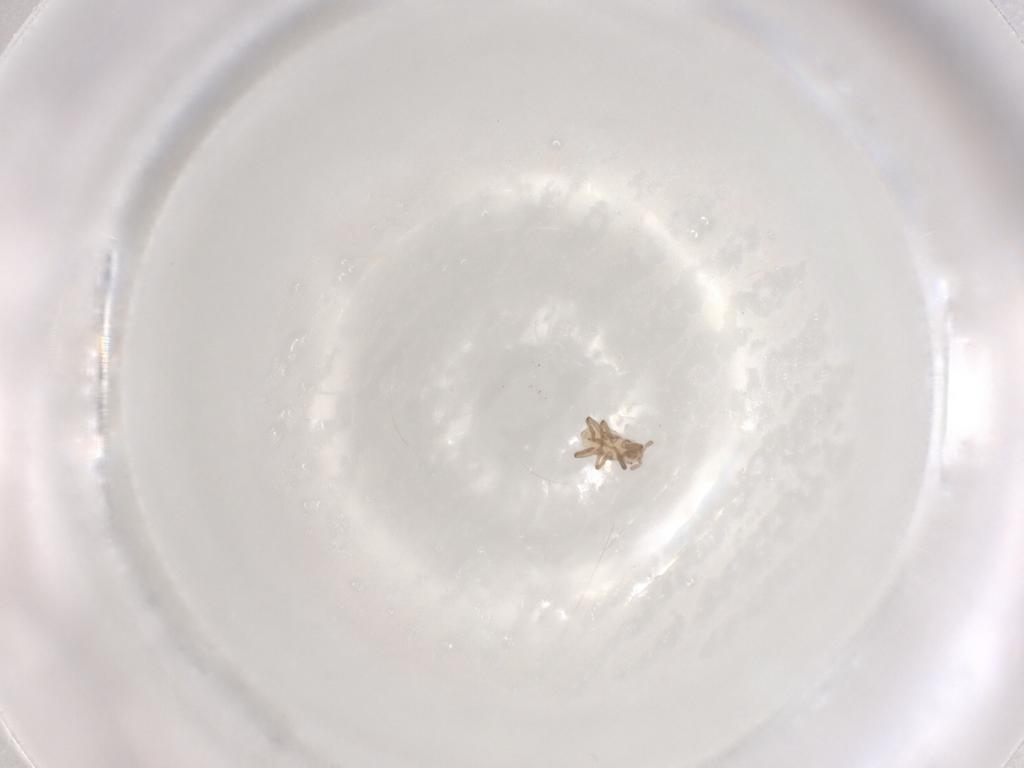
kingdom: Animalia
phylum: Arthropoda
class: Insecta
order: Hemiptera
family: Aphididae
